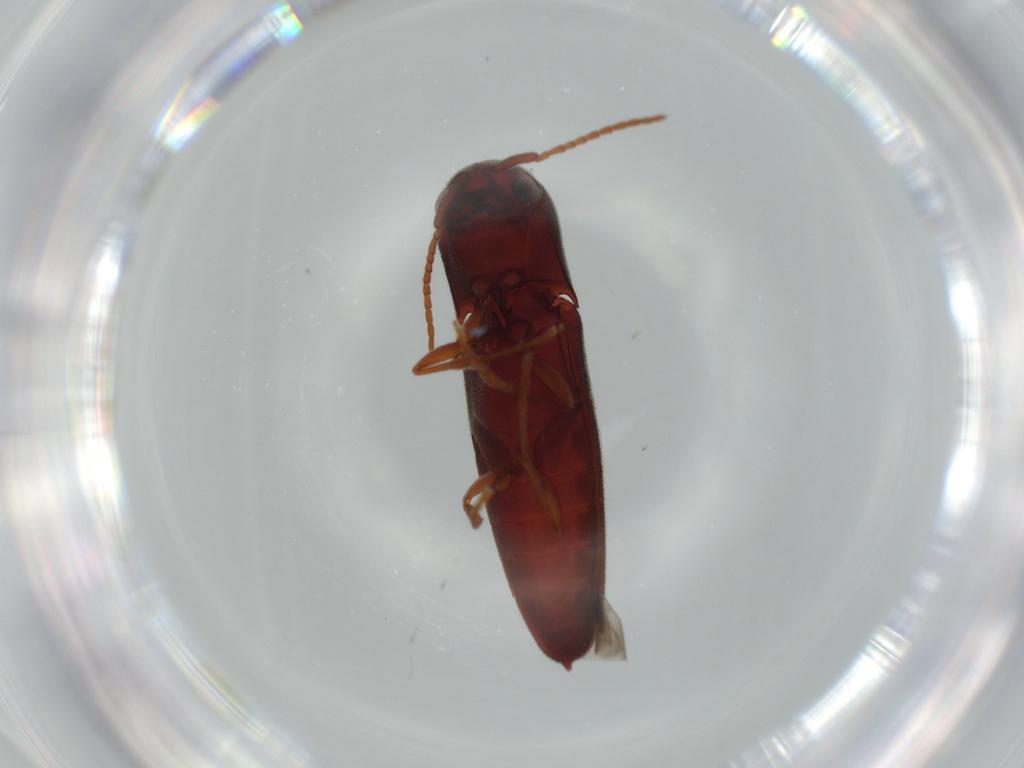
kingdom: Animalia
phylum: Arthropoda
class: Insecta
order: Coleoptera
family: Eucnemidae
